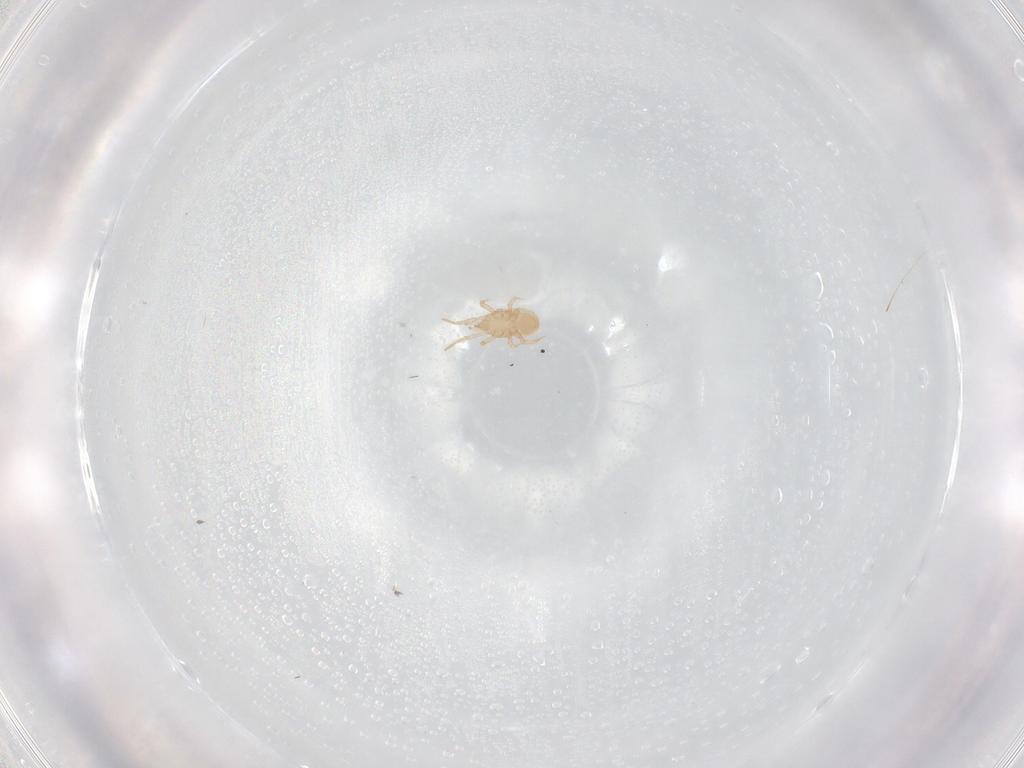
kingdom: Animalia
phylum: Arthropoda
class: Arachnida
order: Mesostigmata
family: Blattisociidae
